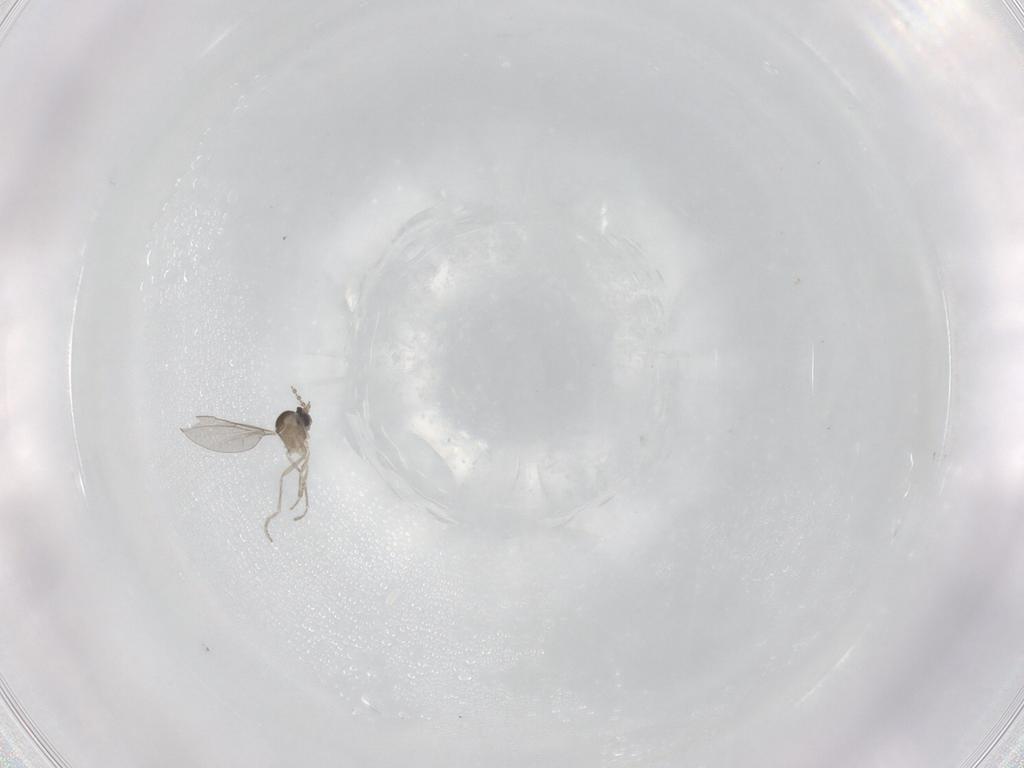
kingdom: Animalia
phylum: Arthropoda
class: Insecta
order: Diptera
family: Cecidomyiidae
